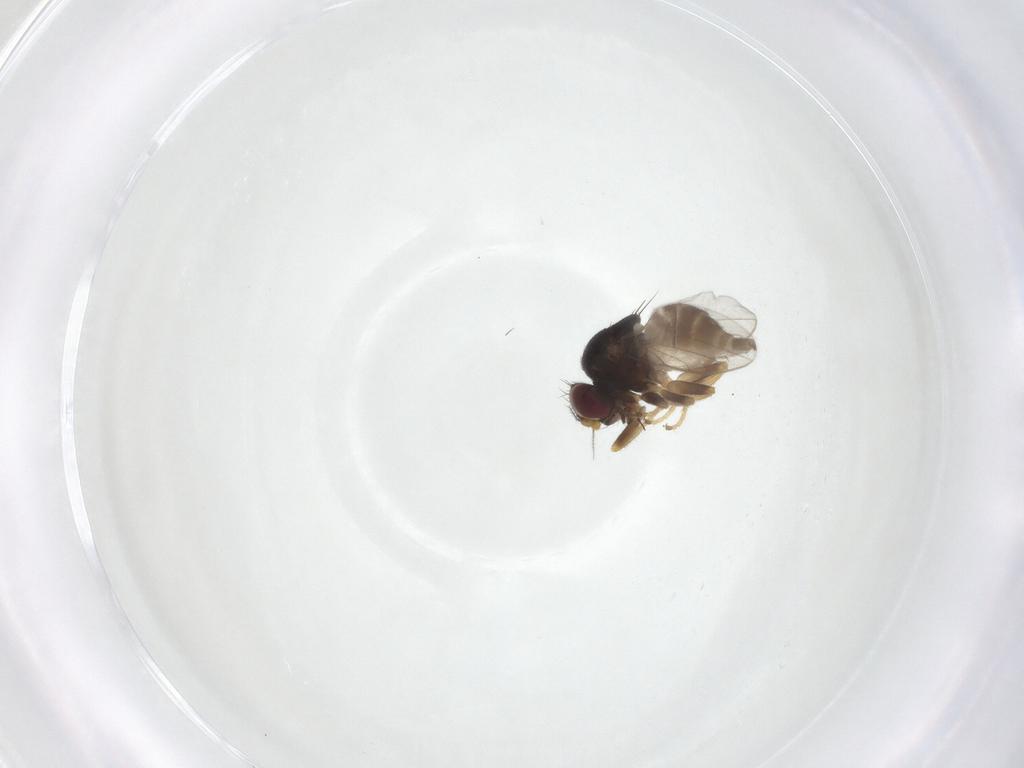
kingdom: Animalia
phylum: Arthropoda
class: Insecta
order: Diptera
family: Chloropidae
